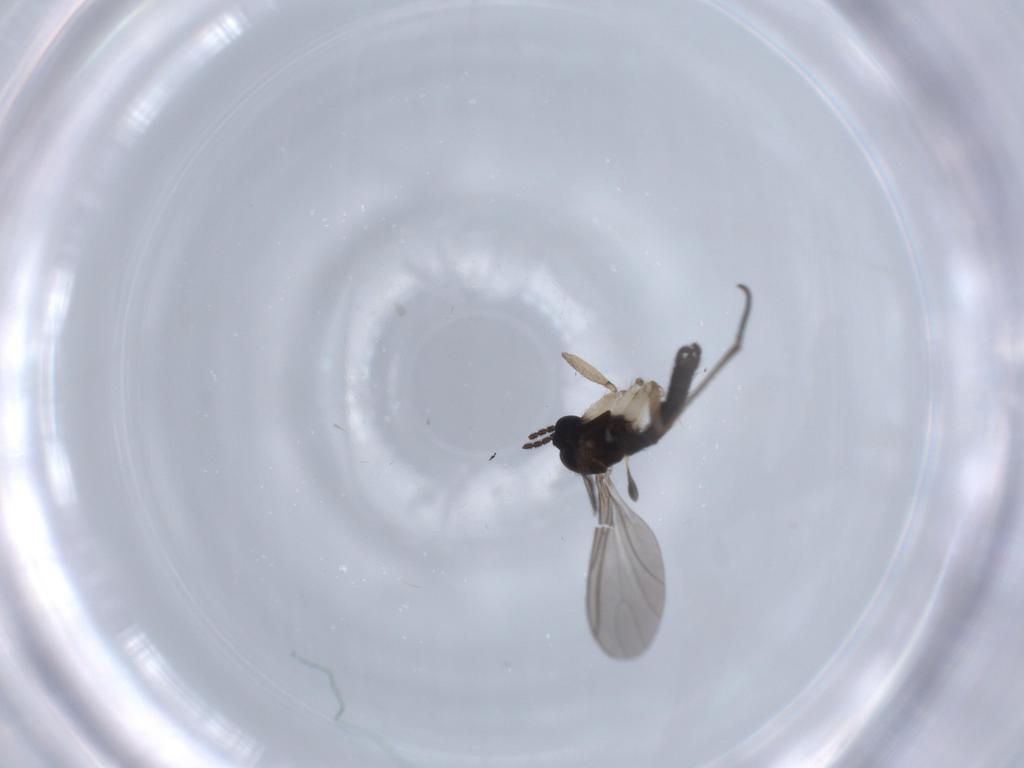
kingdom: Animalia
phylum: Arthropoda
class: Insecta
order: Diptera
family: Sciaridae
